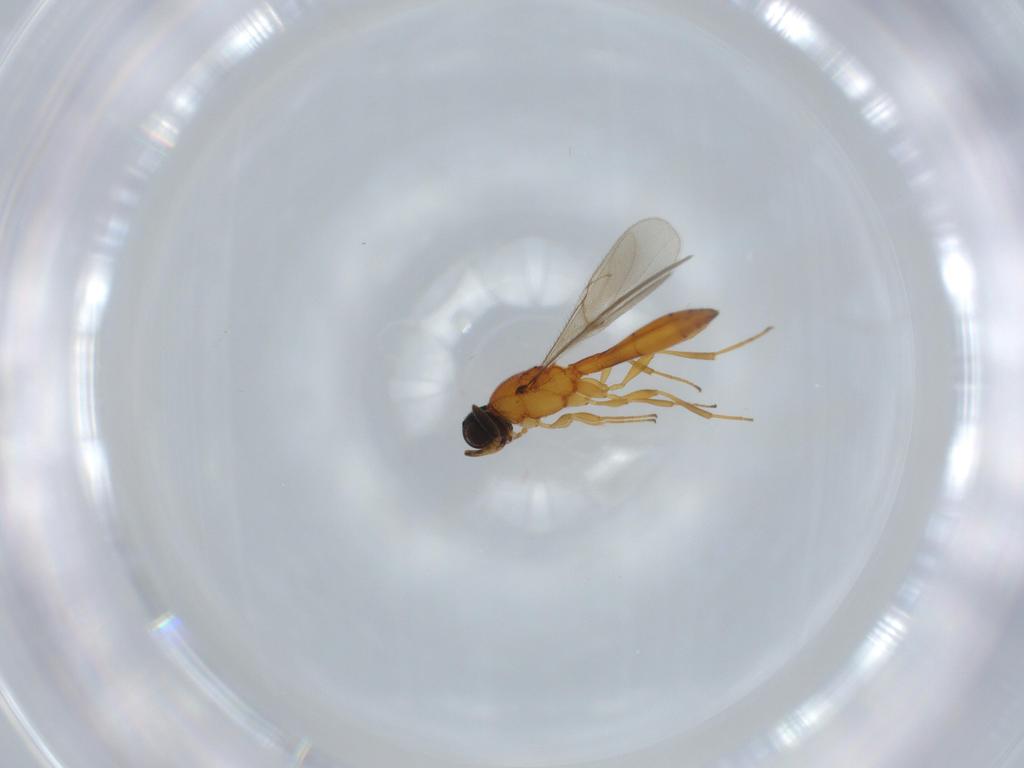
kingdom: Animalia
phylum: Arthropoda
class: Insecta
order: Hymenoptera
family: Scelionidae
